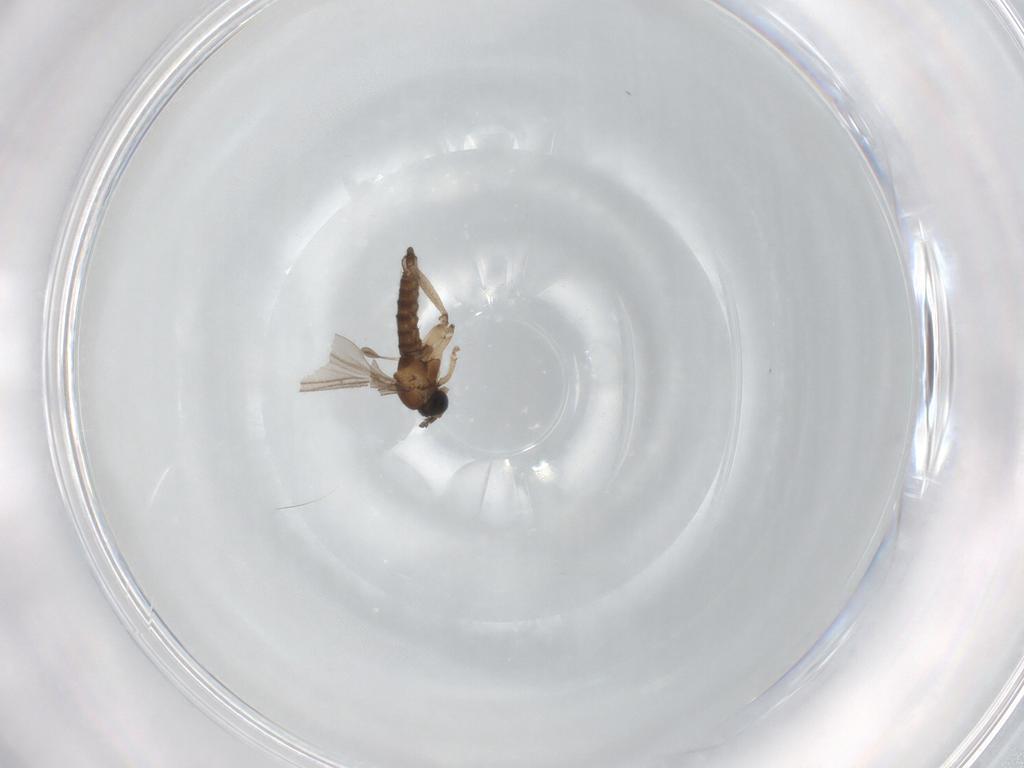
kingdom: Animalia
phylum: Arthropoda
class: Insecta
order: Diptera
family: Sciaridae
